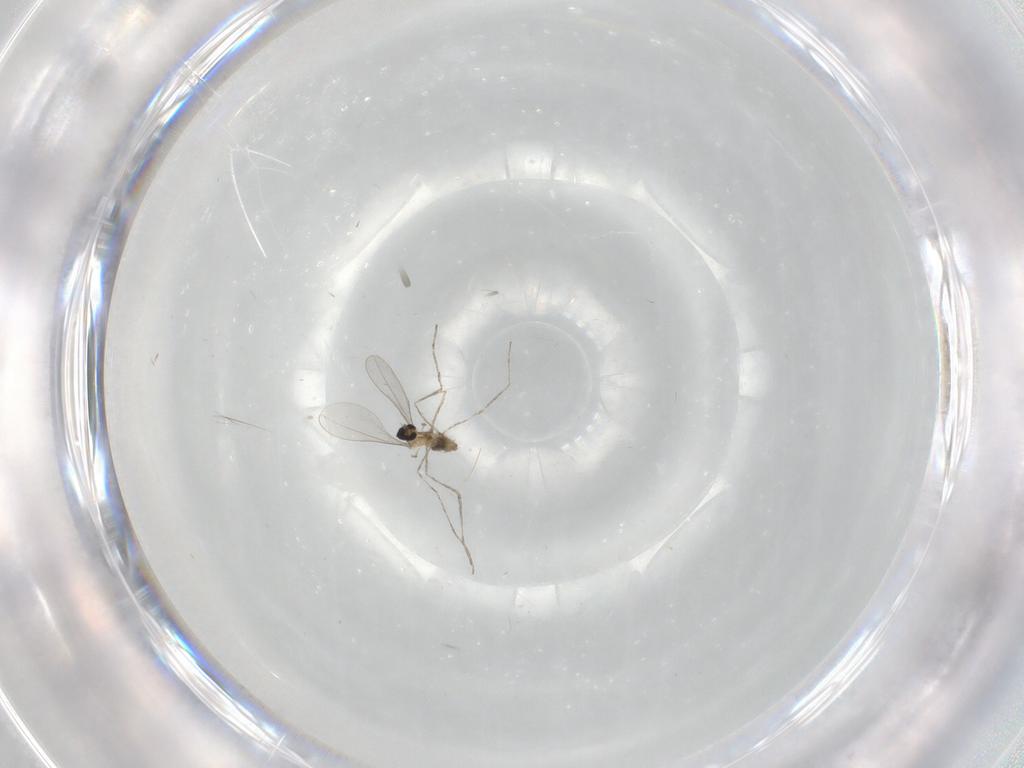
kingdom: Animalia
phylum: Arthropoda
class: Insecta
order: Diptera
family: Cecidomyiidae
